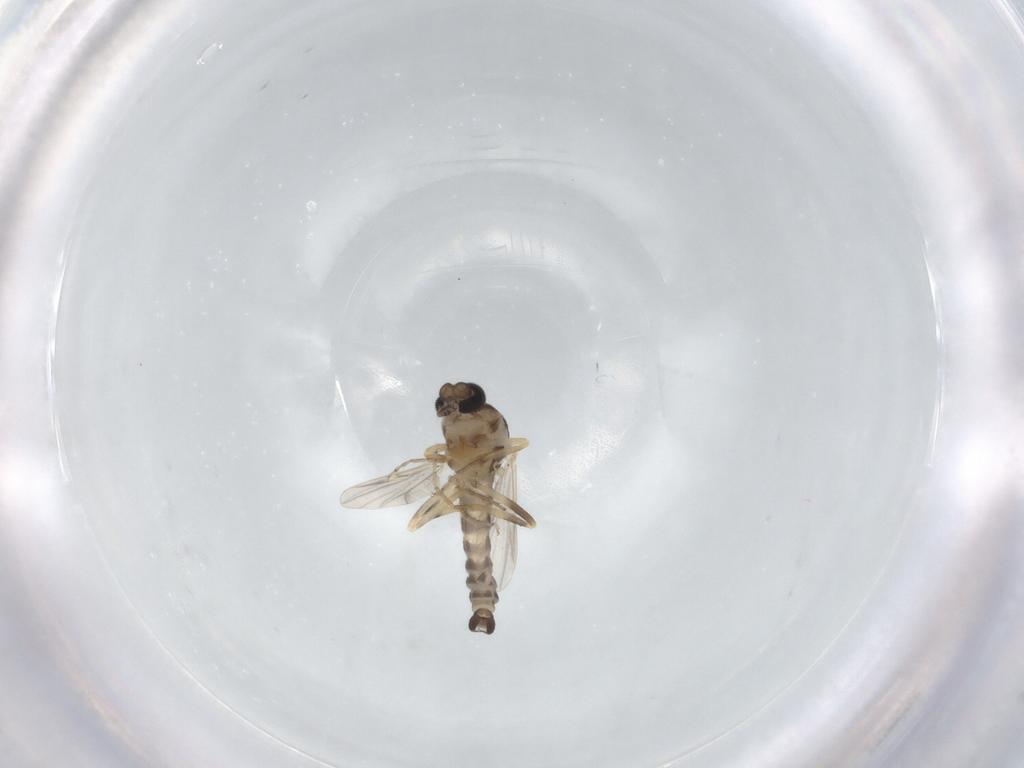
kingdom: Animalia
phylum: Arthropoda
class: Insecta
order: Diptera
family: Ceratopogonidae
